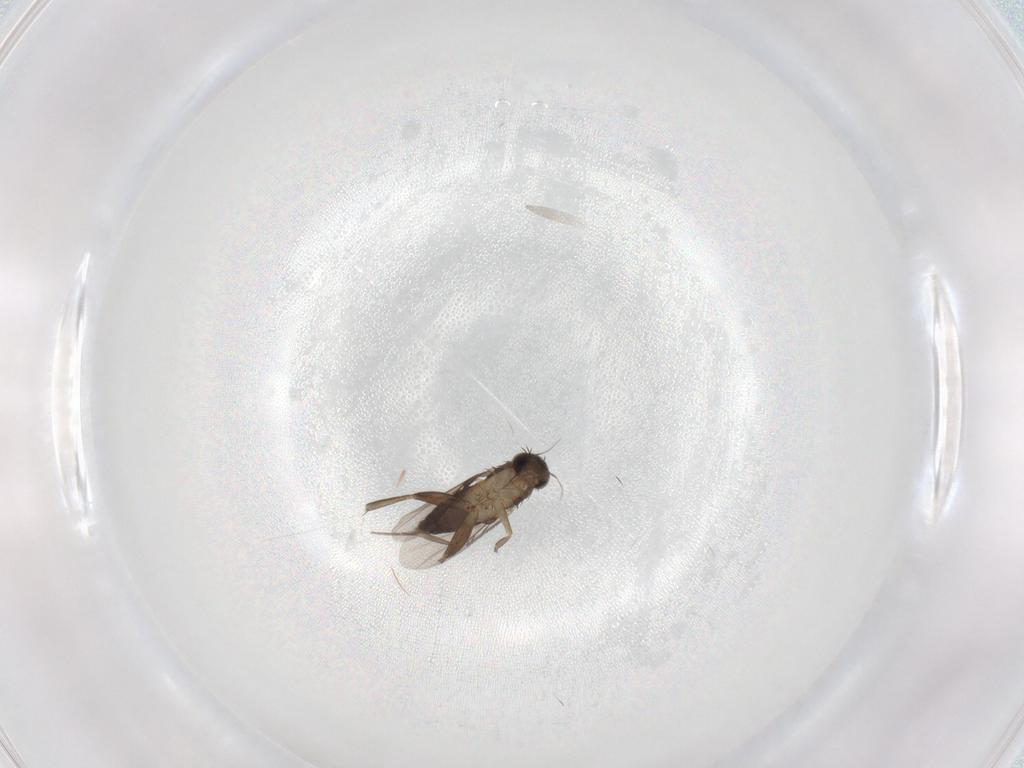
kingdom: Animalia
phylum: Arthropoda
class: Insecta
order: Diptera
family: Phoridae
